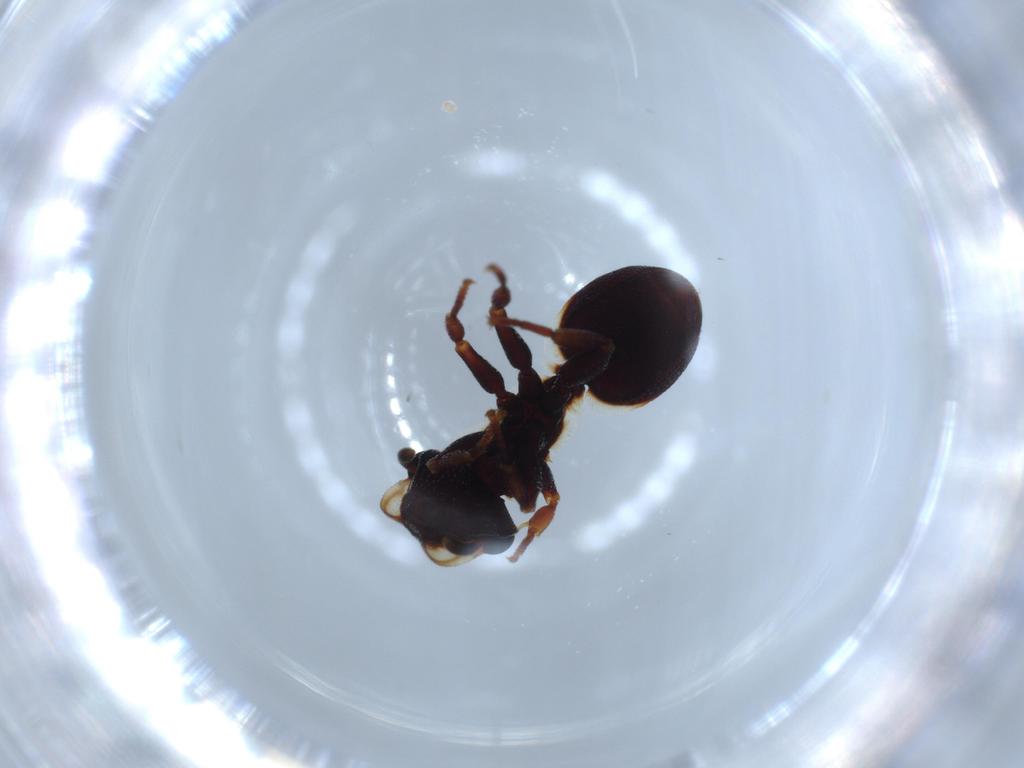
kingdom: Animalia
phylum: Arthropoda
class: Insecta
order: Hymenoptera
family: Formicidae
